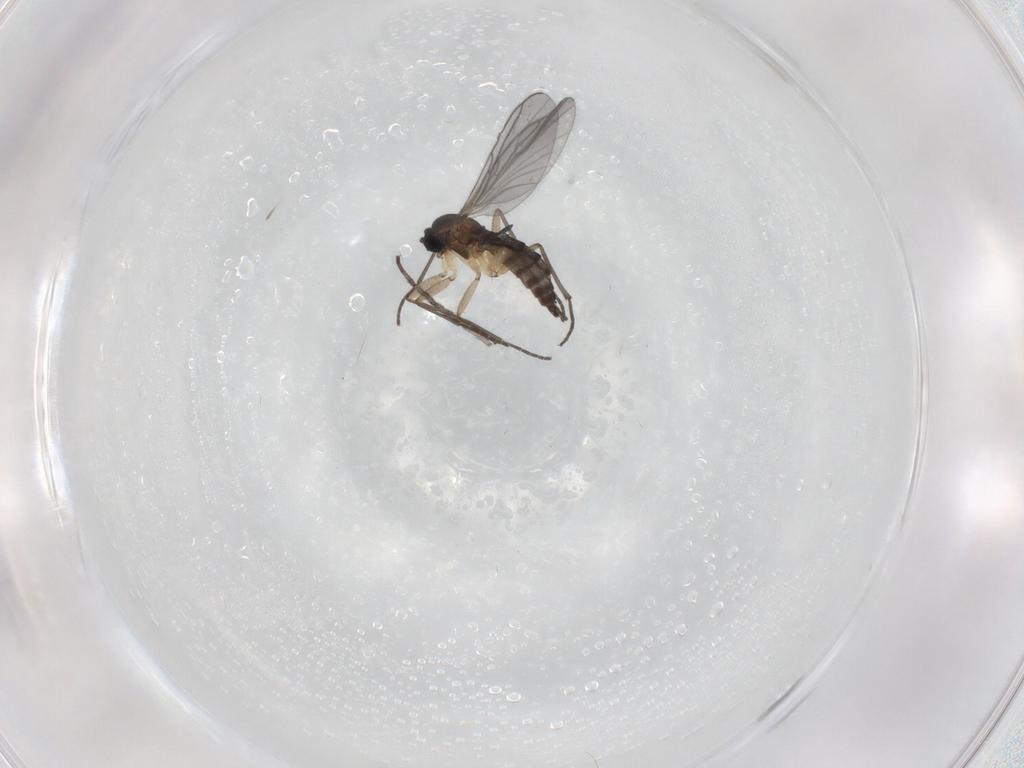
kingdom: Animalia
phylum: Arthropoda
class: Insecta
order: Diptera
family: Sciaridae
